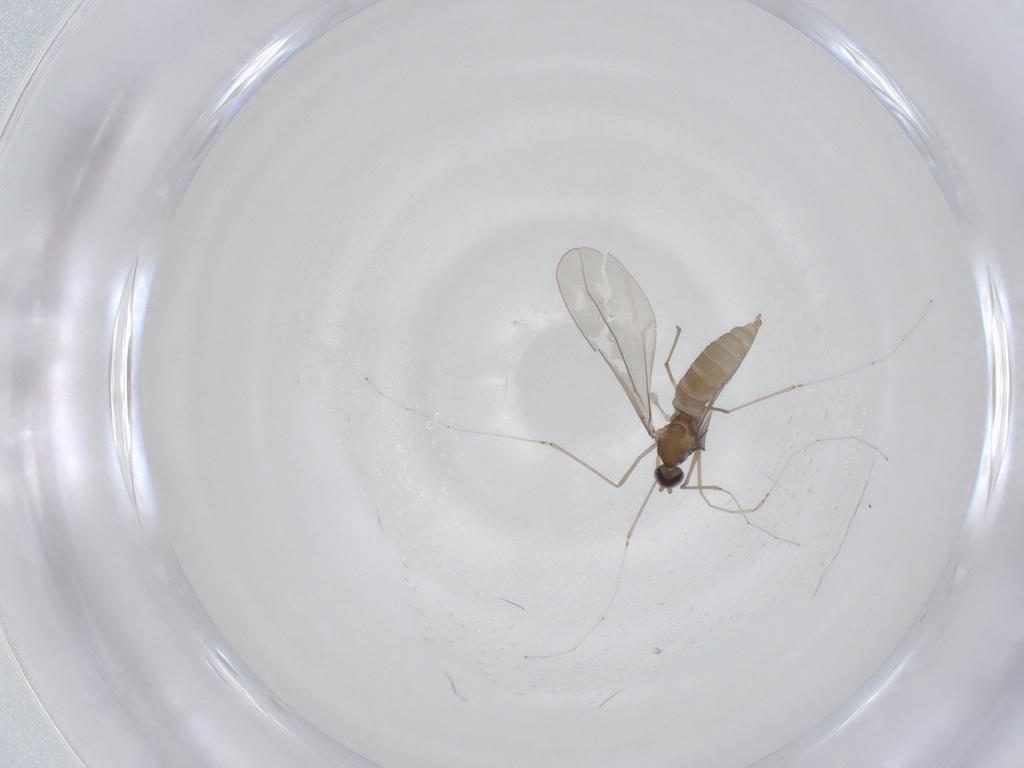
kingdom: Animalia
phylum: Arthropoda
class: Insecta
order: Diptera
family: Cecidomyiidae
